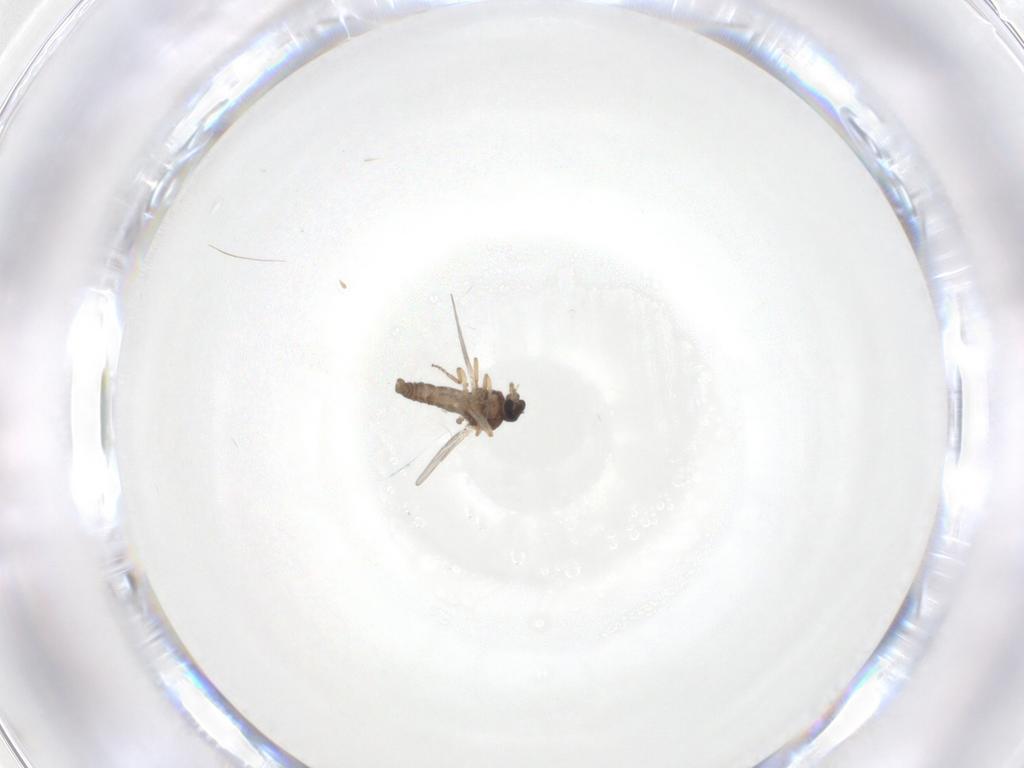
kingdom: Animalia
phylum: Arthropoda
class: Insecta
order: Diptera
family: Ceratopogonidae
